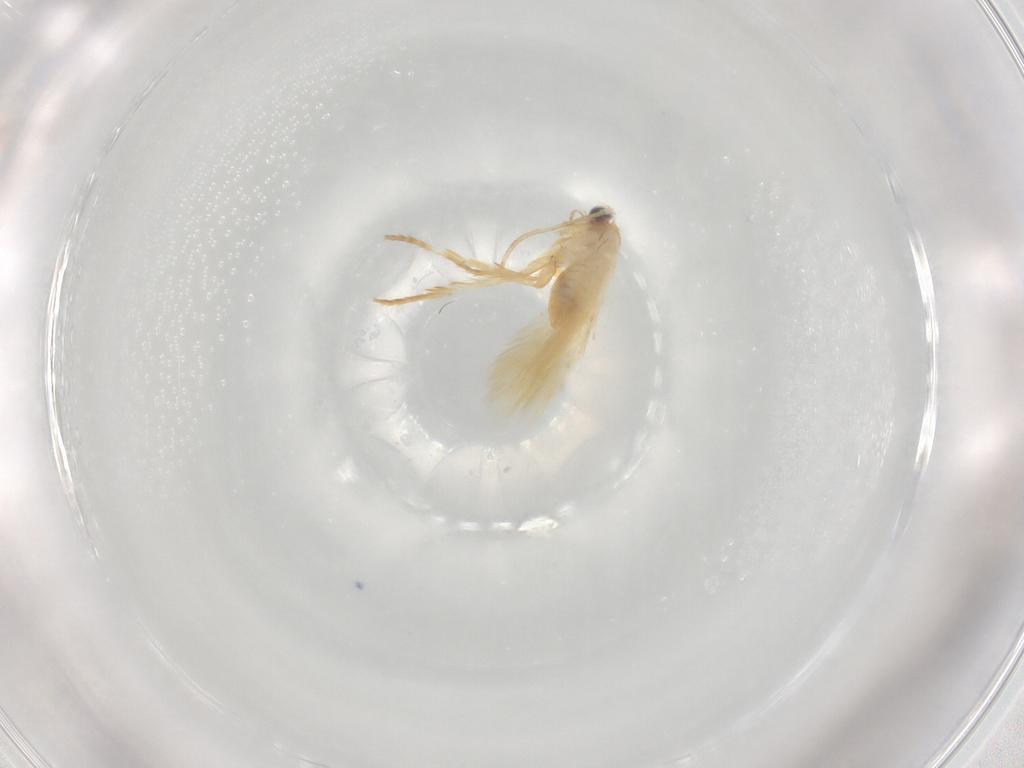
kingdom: Animalia
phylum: Arthropoda
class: Insecta
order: Lepidoptera
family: Nepticulidae
